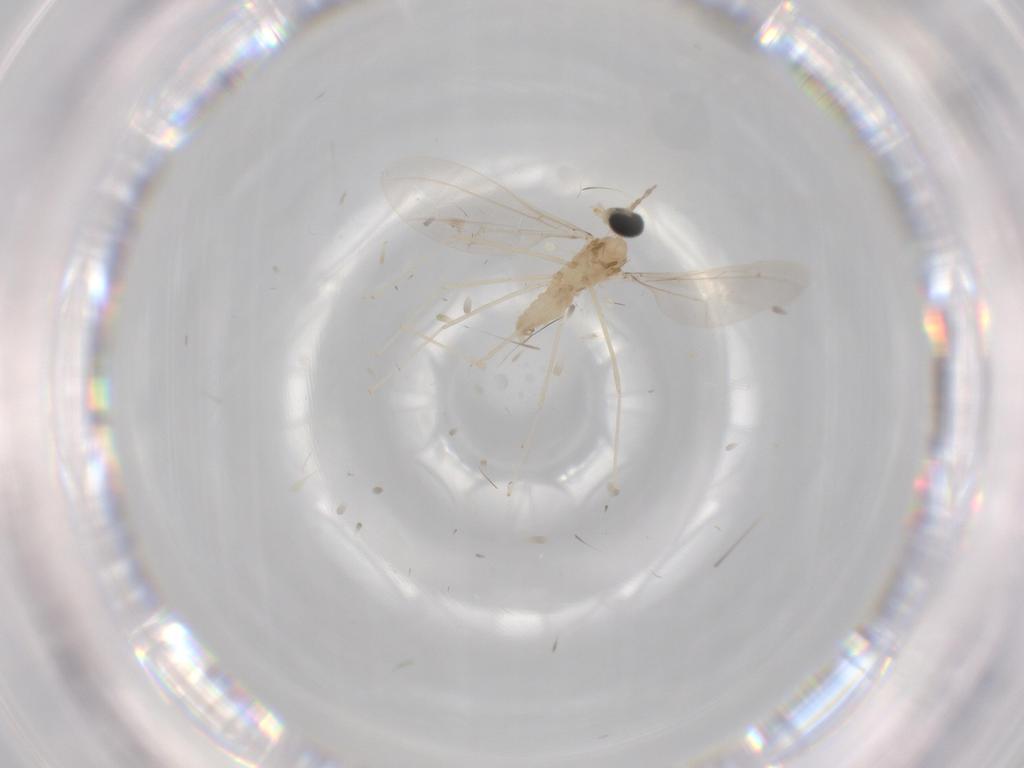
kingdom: Animalia
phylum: Arthropoda
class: Insecta
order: Diptera
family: Cecidomyiidae
